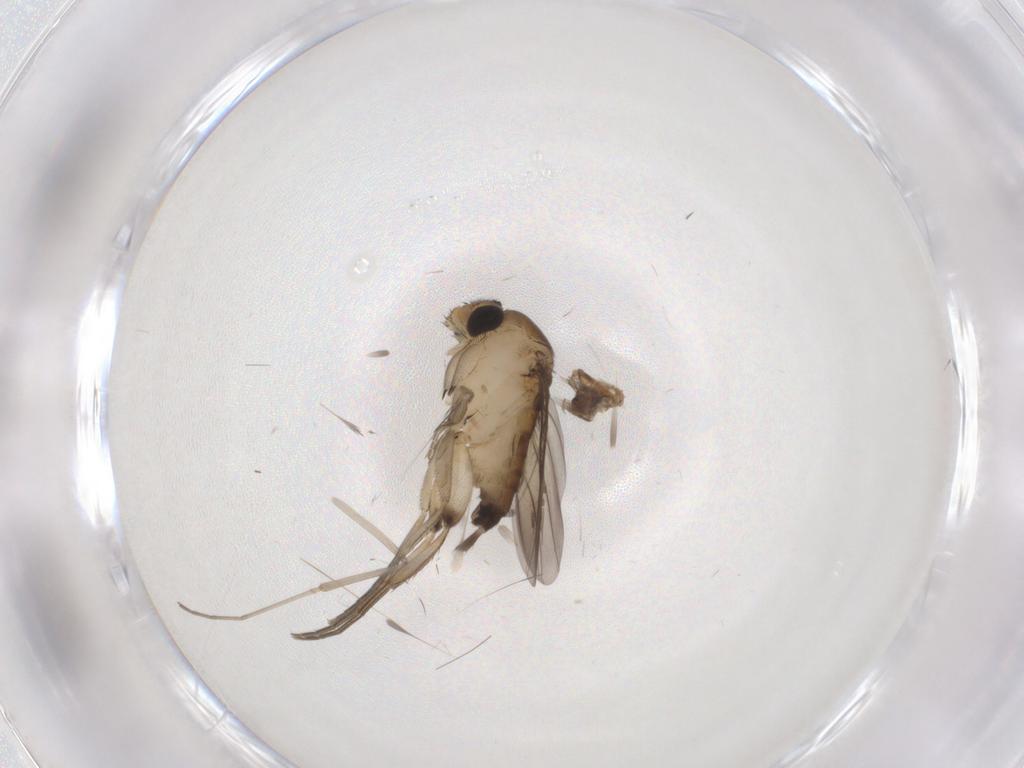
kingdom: Animalia
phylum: Arthropoda
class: Insecta
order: Diptera
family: Phoridae
